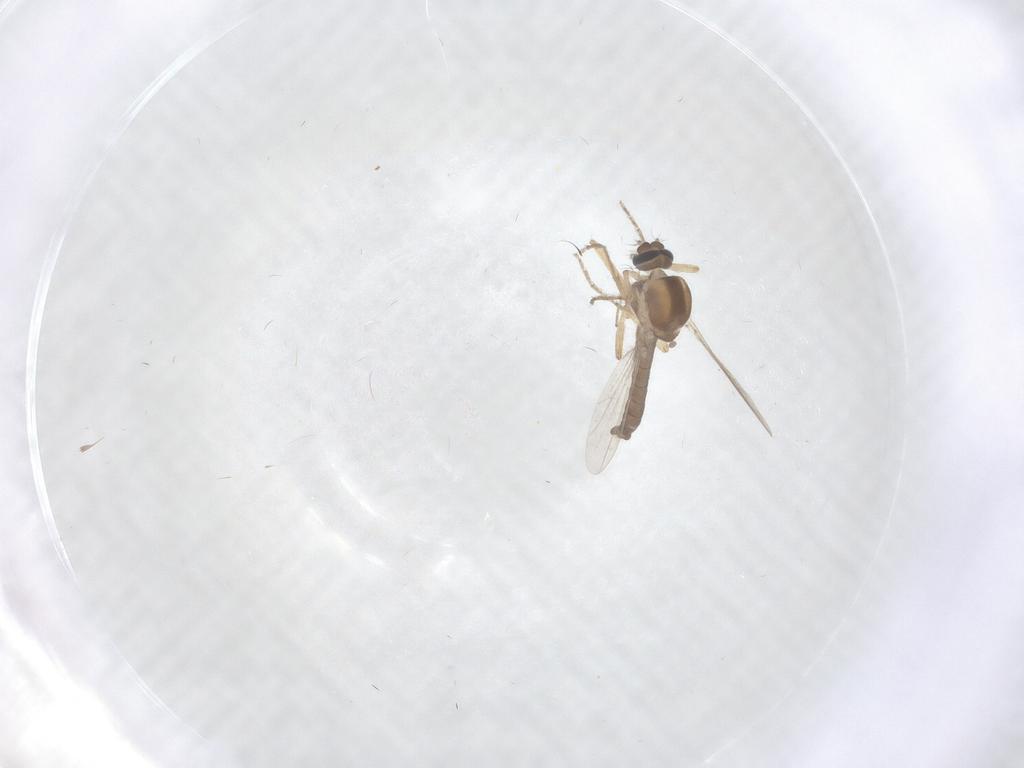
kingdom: Animalia
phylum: Arthropoda
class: Insecta
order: Diptera
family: Ceratopogonidae
